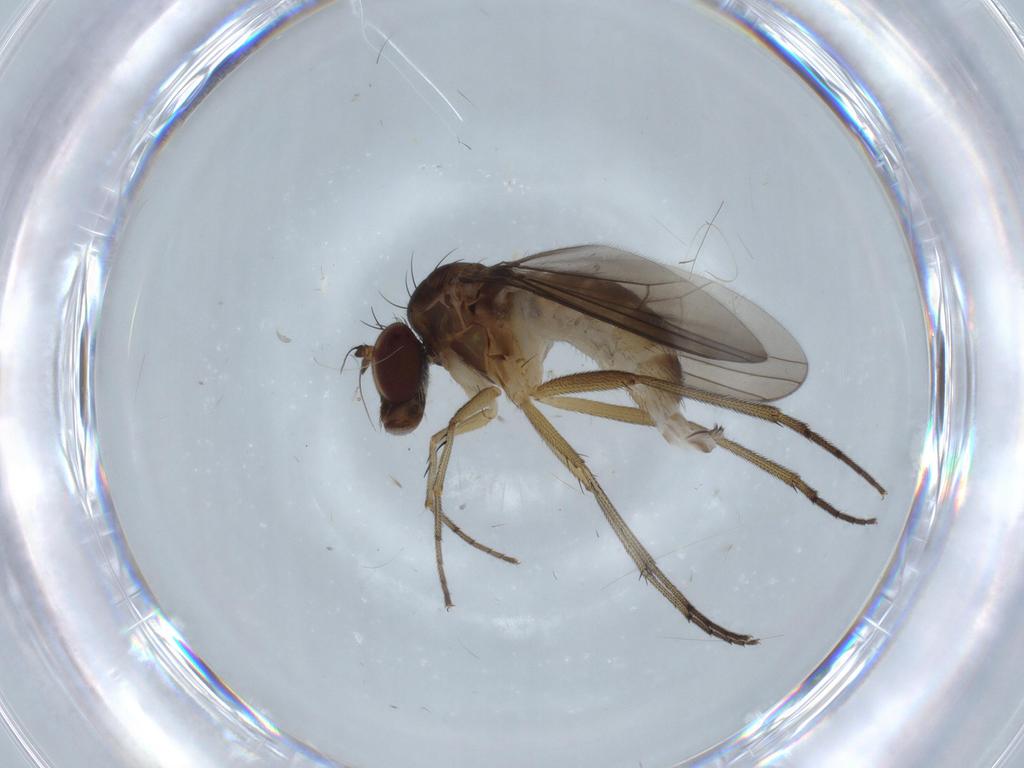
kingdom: Animalia
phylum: Arthropoda
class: Insecta
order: Diptera
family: Dolichopodidae
